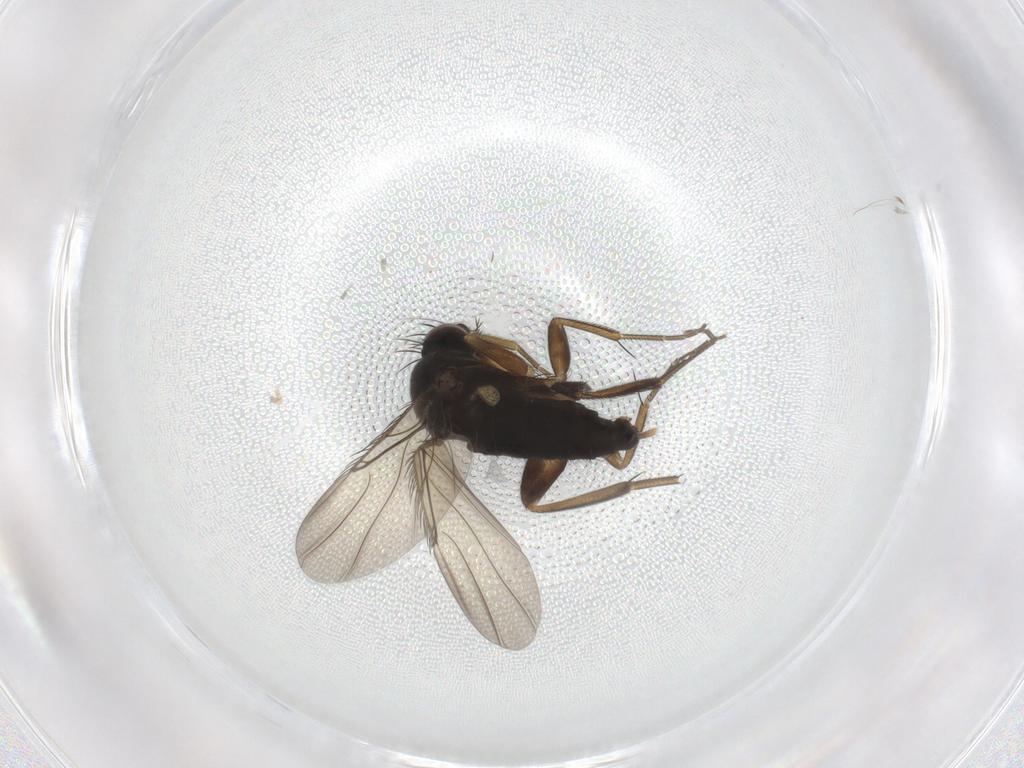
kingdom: Animalia
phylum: Arthropoda
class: Insecta
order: Diptera
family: Phoridae
